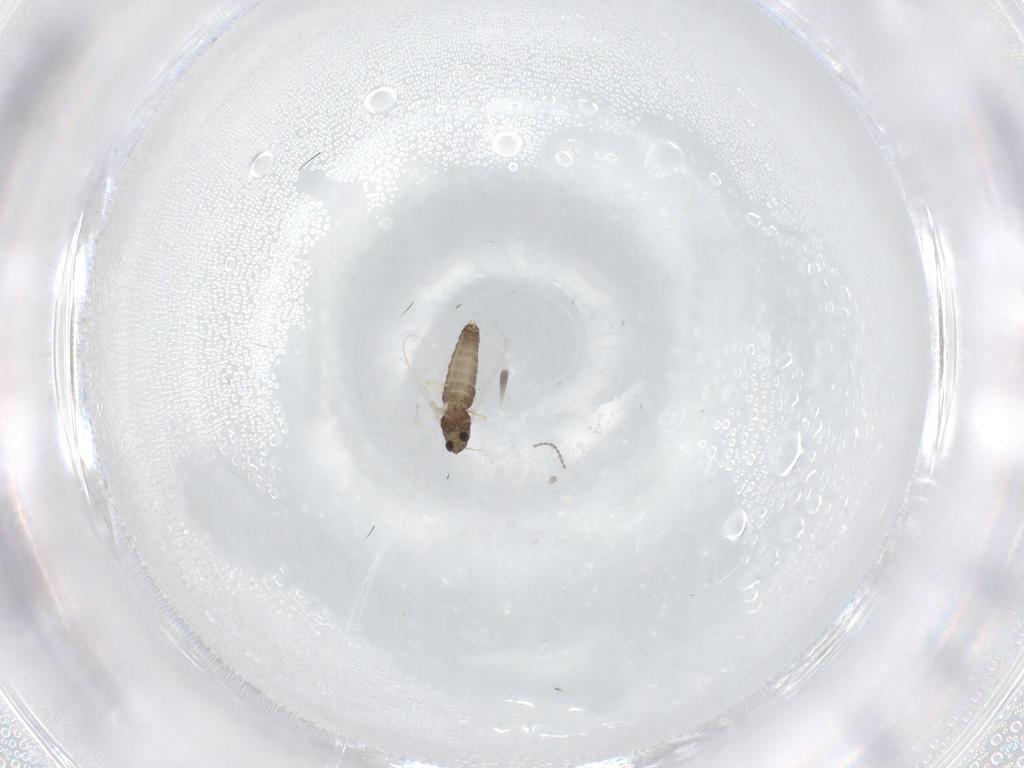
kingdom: Animalia
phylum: Arthropoda
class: Insecta
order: Diptera
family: Chironomidae
